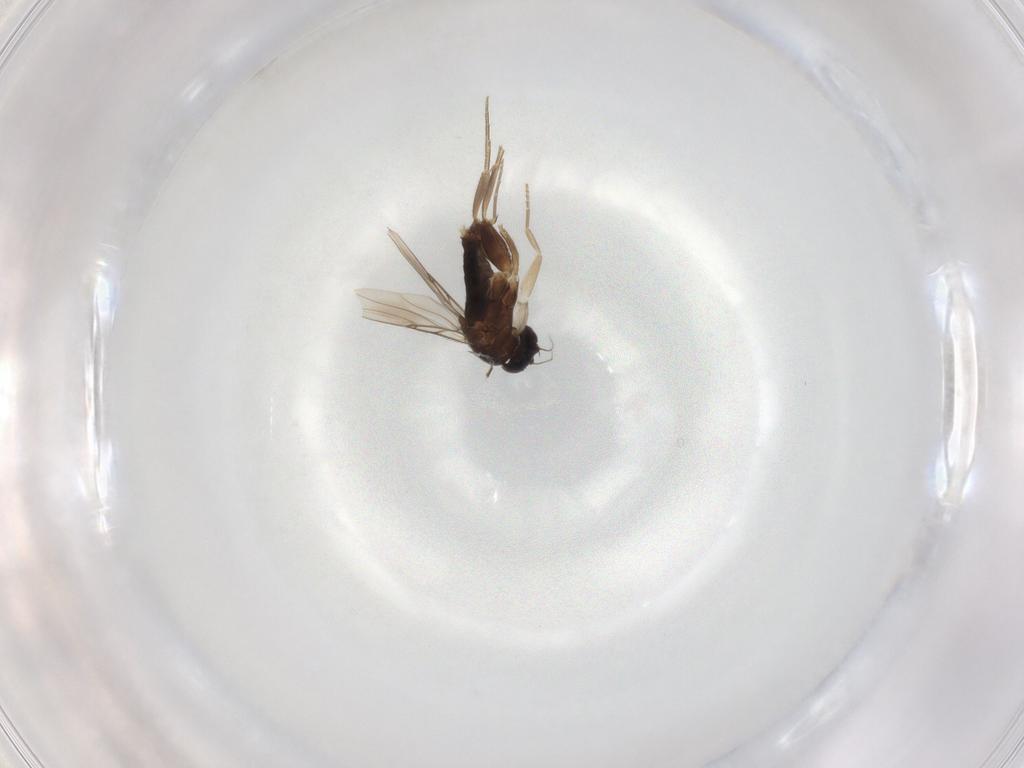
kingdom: Animalia
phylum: Arthropoda
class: Insecta
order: Diptera
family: Phoridae
